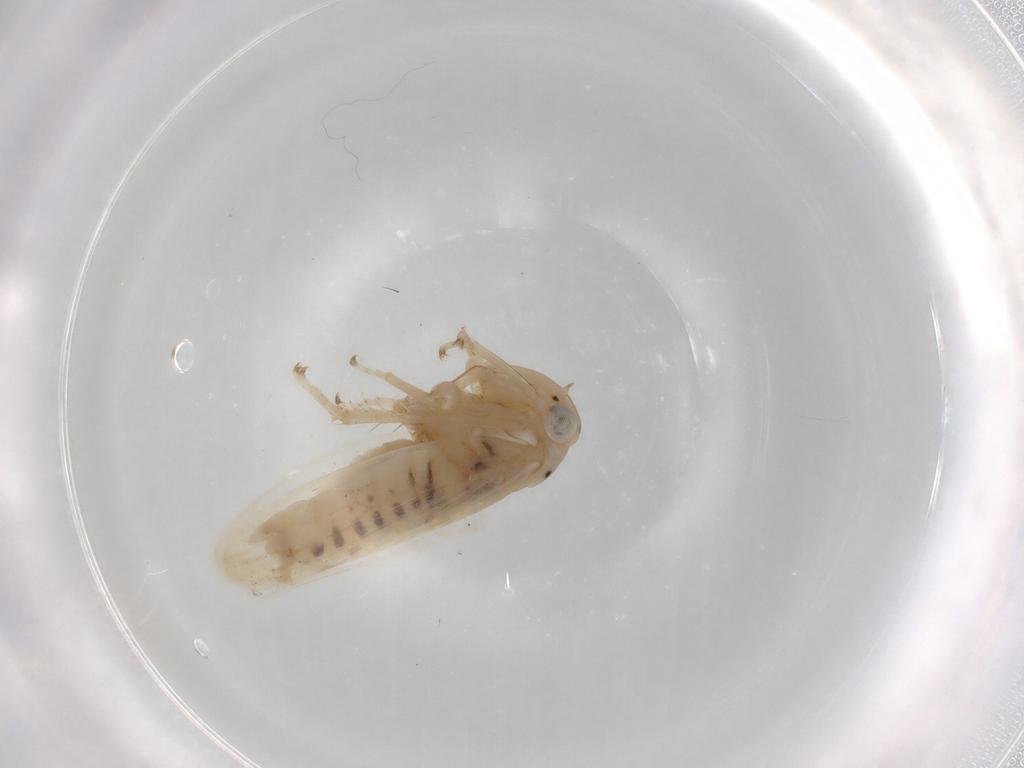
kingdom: Animalia
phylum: Arthropoda
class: Insecta
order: Hemiptera
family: Cicadellidae
